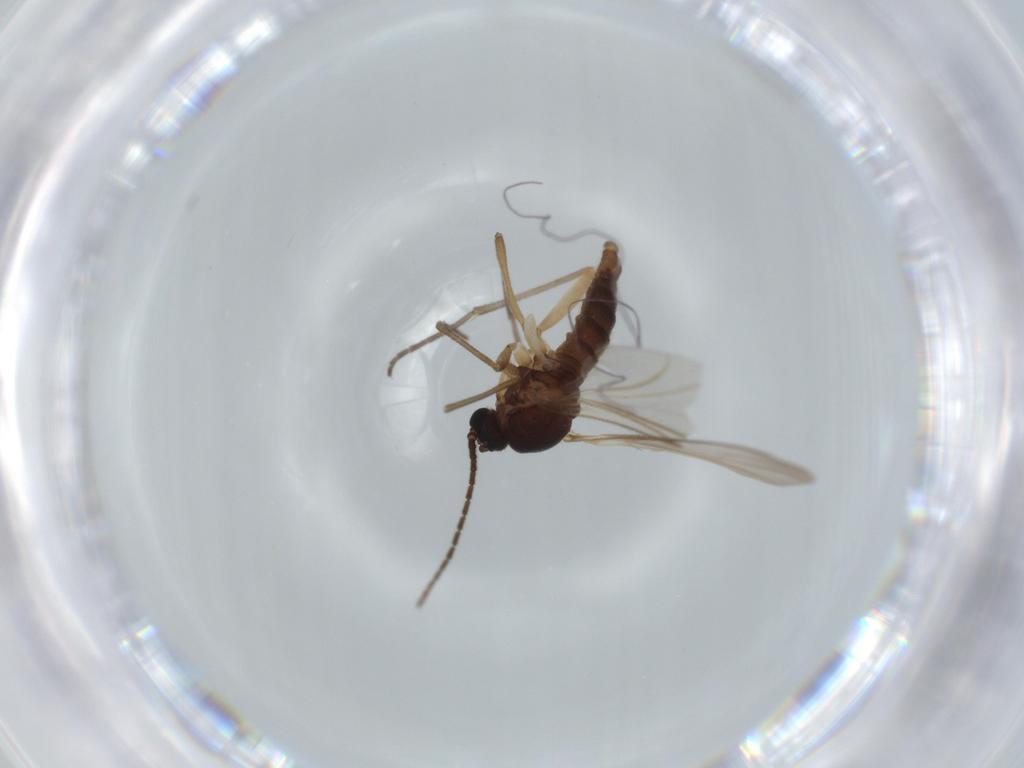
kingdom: Animalia
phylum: Arthropoda
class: Insecta
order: Diptera
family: Sciaridae
